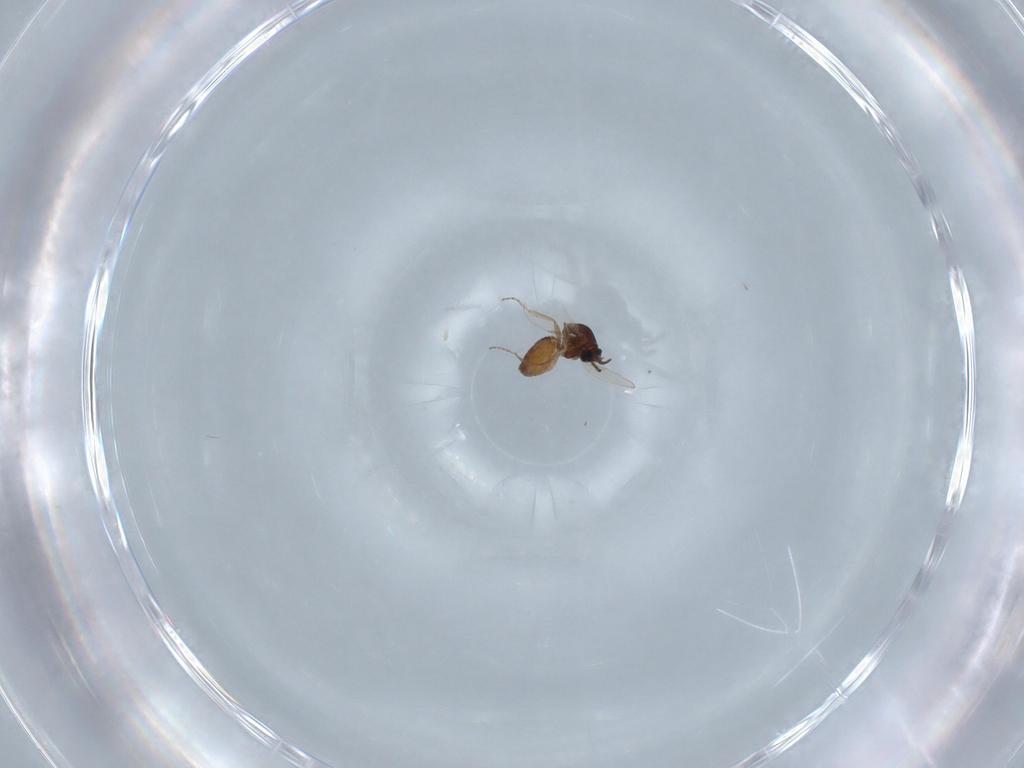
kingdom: Animalia
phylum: Arthropoda
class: Insecta
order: Diptera
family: Ceratopogonidae
